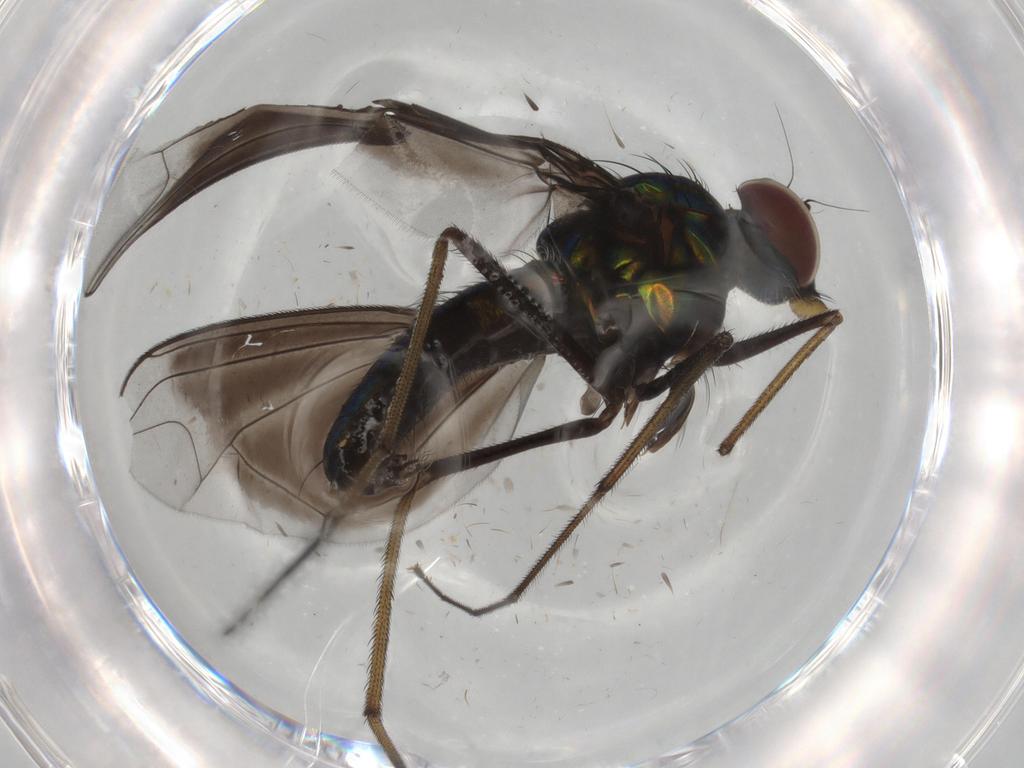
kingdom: Animalia
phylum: Arthropoda
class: Insecta
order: Diptera
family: Dolichopodidae
